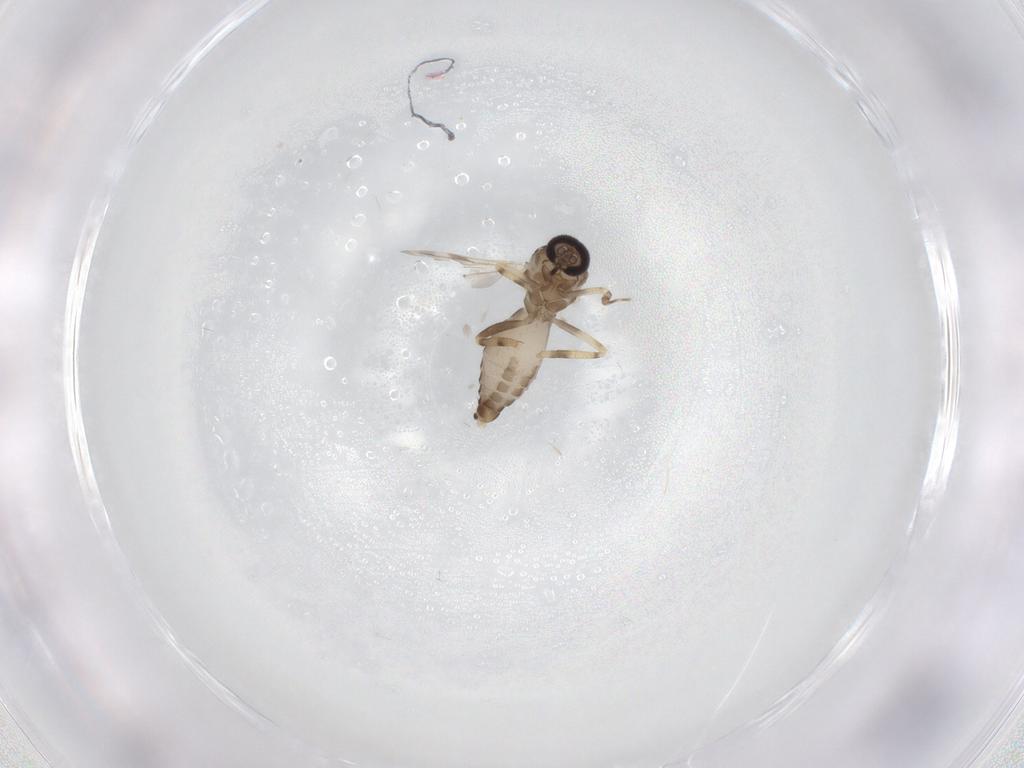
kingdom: Animalia
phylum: Arthropoda
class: Insecta
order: Diptera
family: Ceratopogonidae
